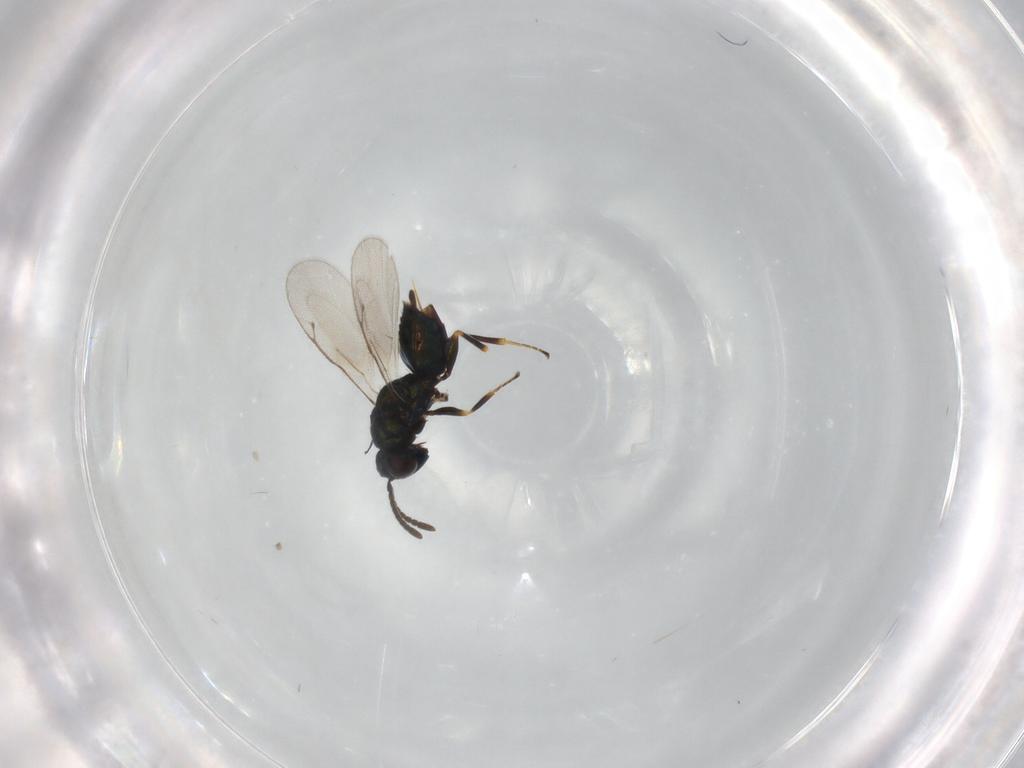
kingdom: Animalia
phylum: Arthropoda
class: Insecta
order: Hymenoptera
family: Pteromalidae
